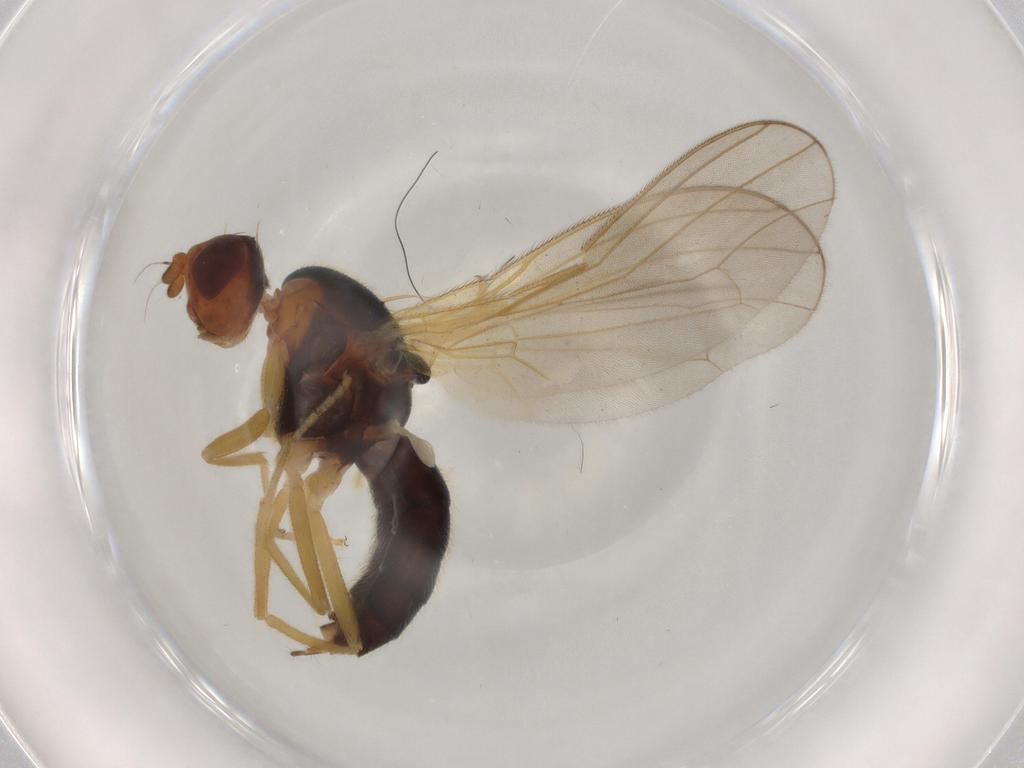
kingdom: Animalia
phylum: Arthropoda
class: Insecta
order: Diptera
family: Hybotidae
